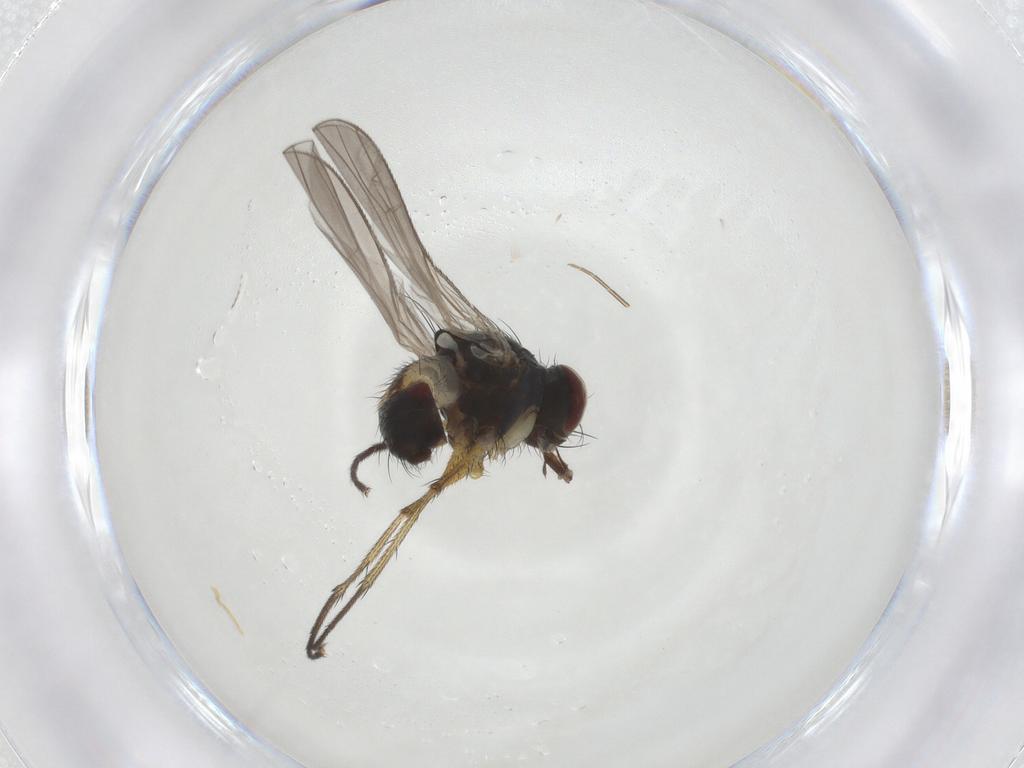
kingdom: Animalia
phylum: Arthropoda
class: Insecta
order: Diptera
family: Muscidae
